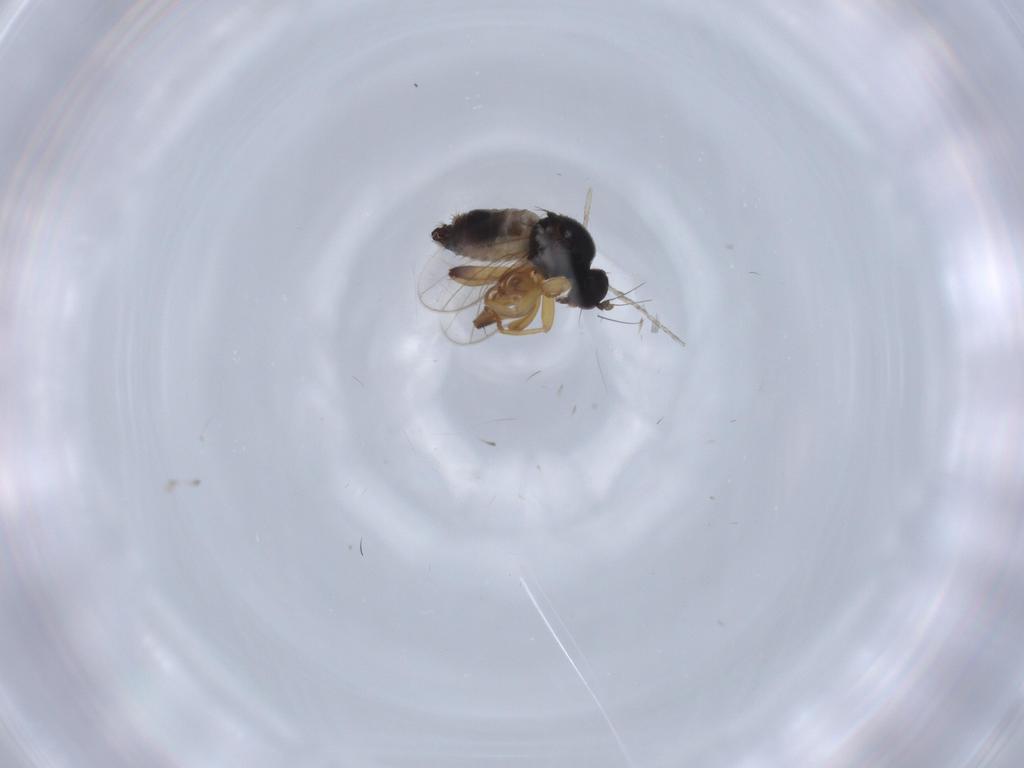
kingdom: Animalia
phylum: Arthropoda
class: Insecta
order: Diptera
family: Hybotidae
